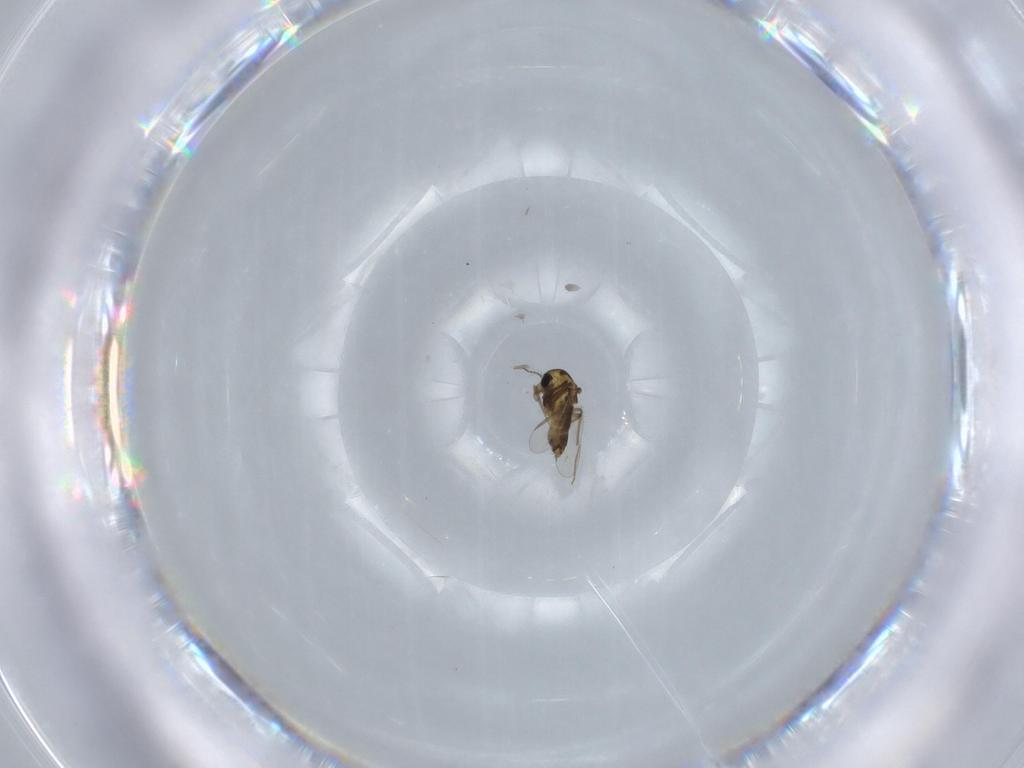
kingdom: Animalia
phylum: Arthropoda
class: Insecta
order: Diptera
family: Chironomidae
